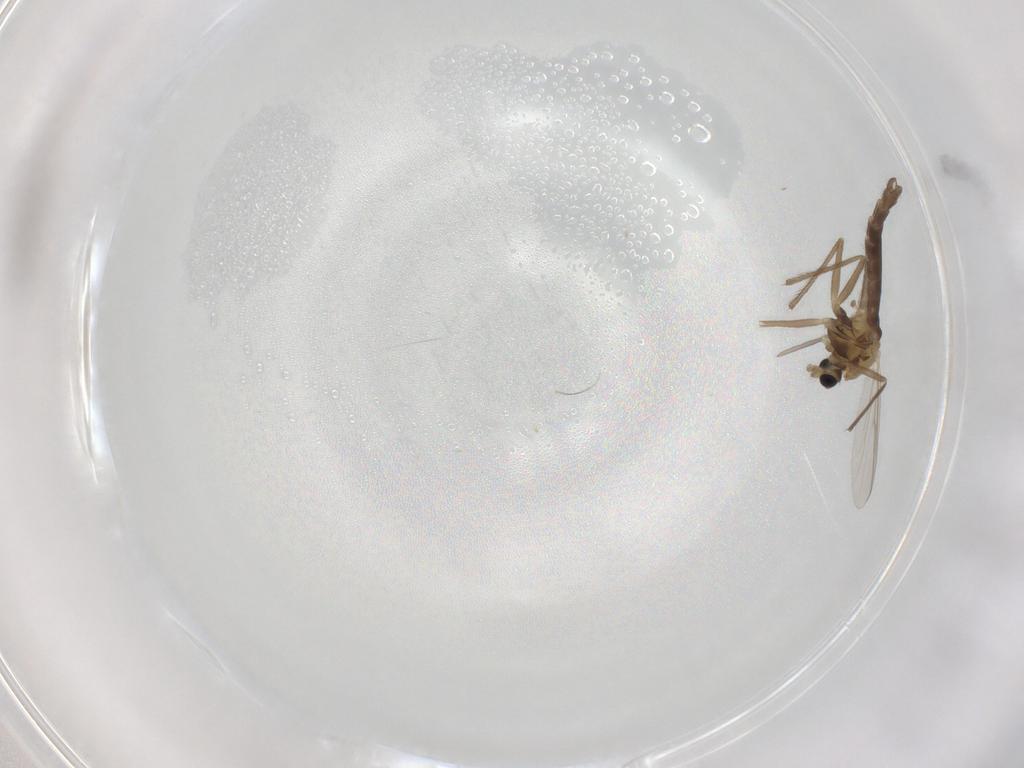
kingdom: Animalia
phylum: Arthropoda
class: Insecta
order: Diptera
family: Chironomidae
